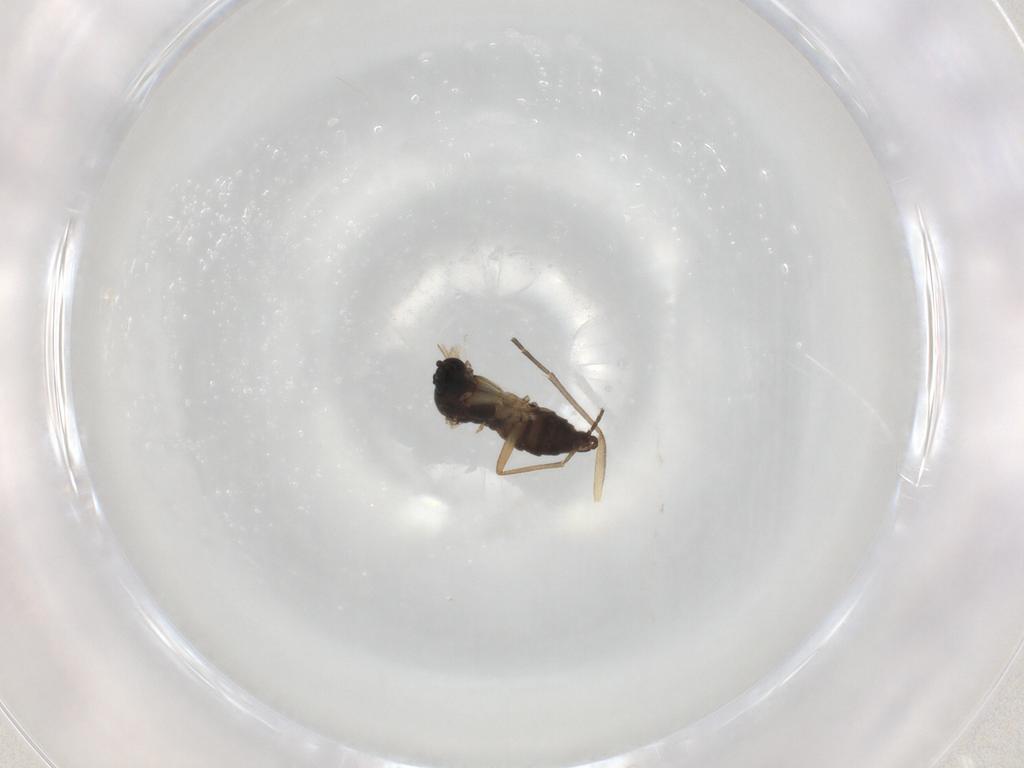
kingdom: Animalia
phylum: Arthropoda
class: Insecta
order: Diptera
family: Sciaridae
